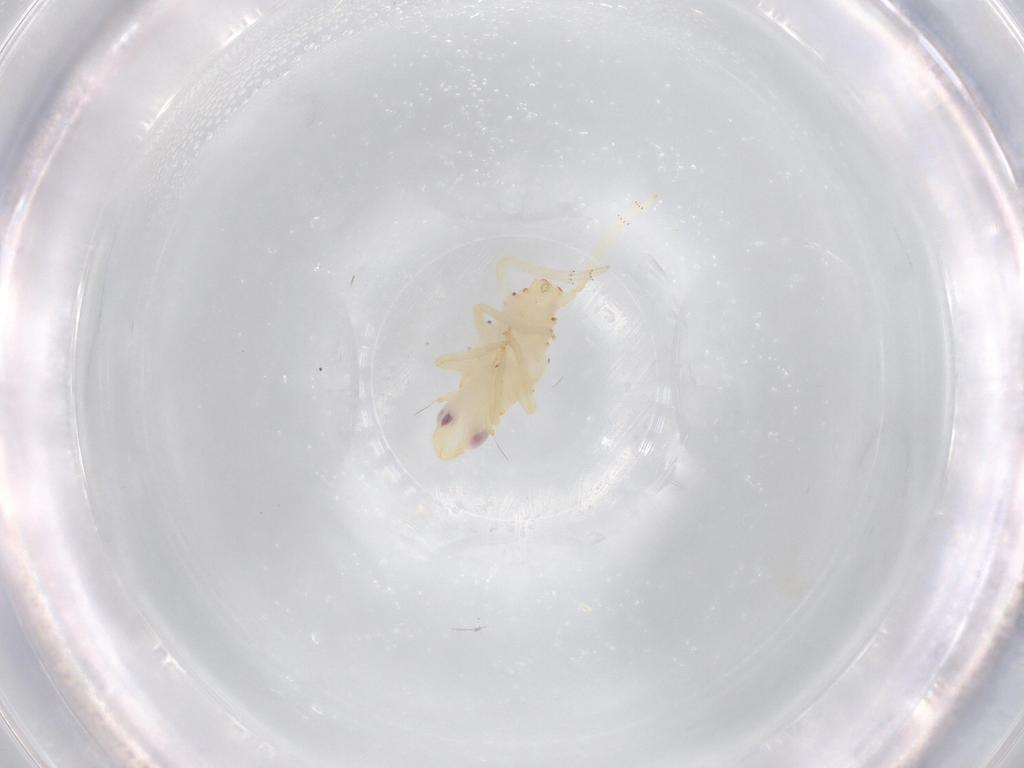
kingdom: Animalia
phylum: Arthropoda
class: Insecta
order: Hemiptera
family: Tropiduchidae
